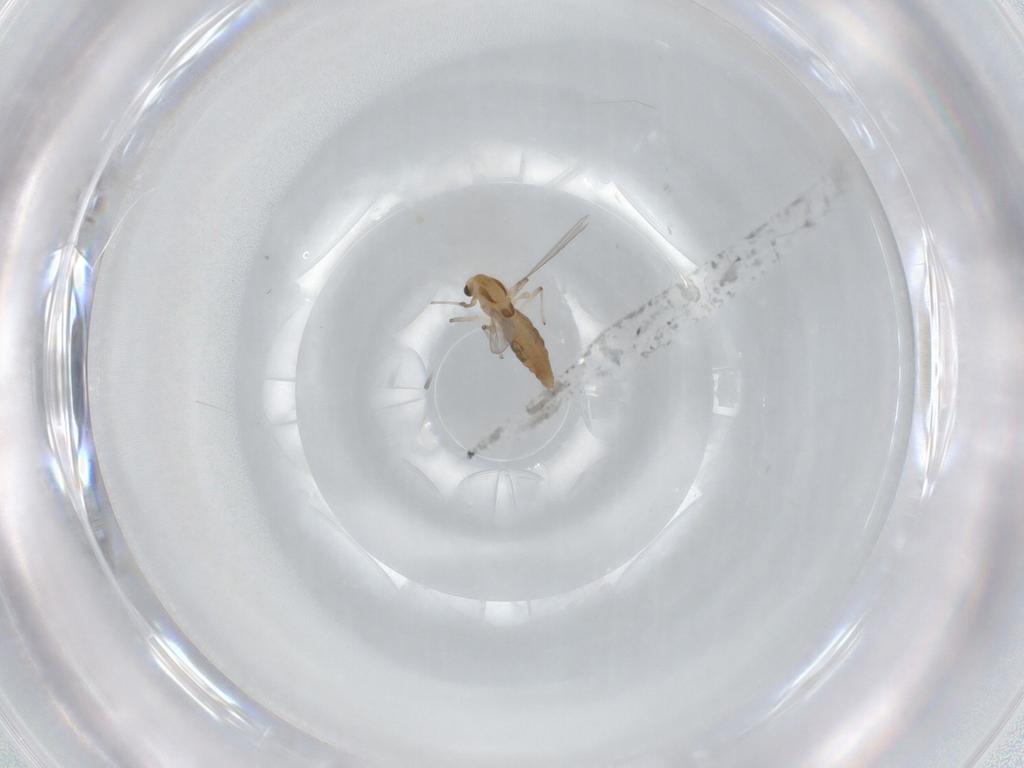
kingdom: Animalia
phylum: Arthropoda
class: Insecta
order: Diptera
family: Chironomidae
